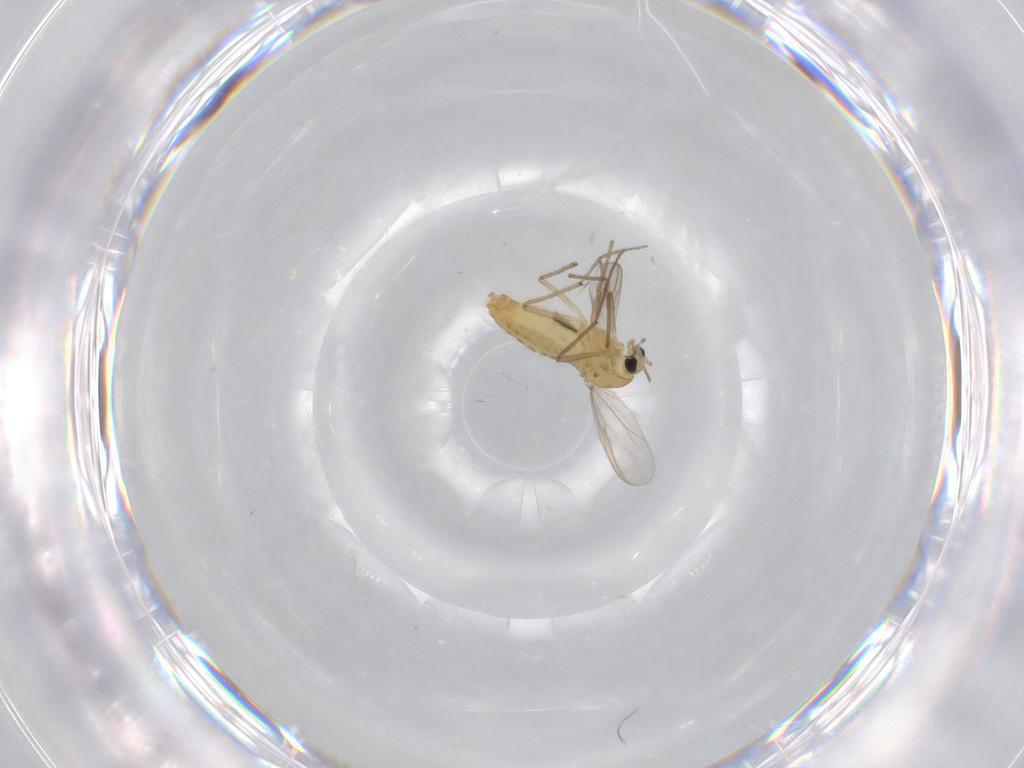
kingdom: Animalia
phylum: Arthropoda
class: Insecta
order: Diptera
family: Chironomidae
